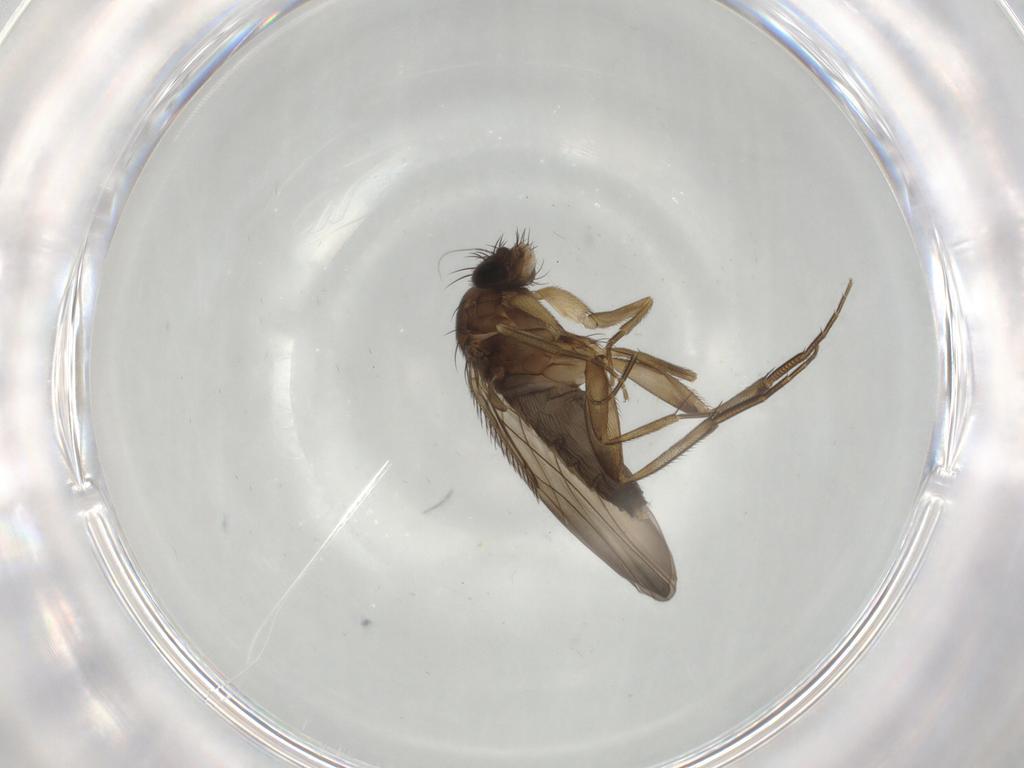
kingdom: Animalia
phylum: Arthropoda
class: Insecta
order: Diptera
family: Phoridae
